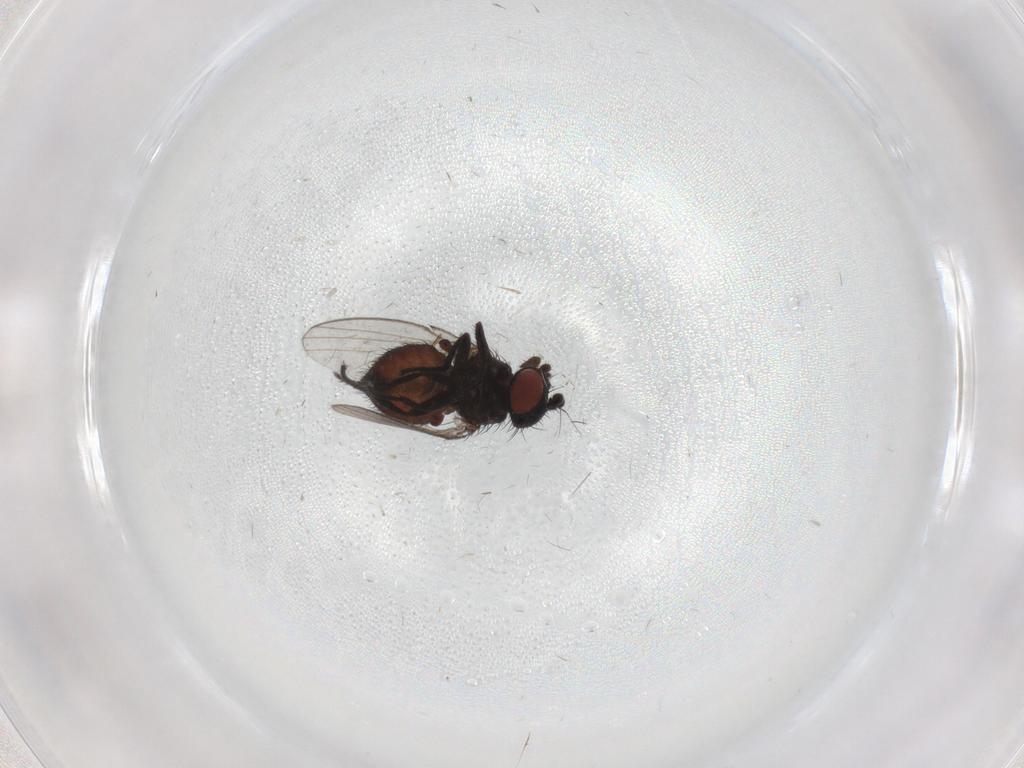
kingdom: Animalia
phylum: Arthropoda
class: Insecta
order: Diptera
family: Milichiidae
